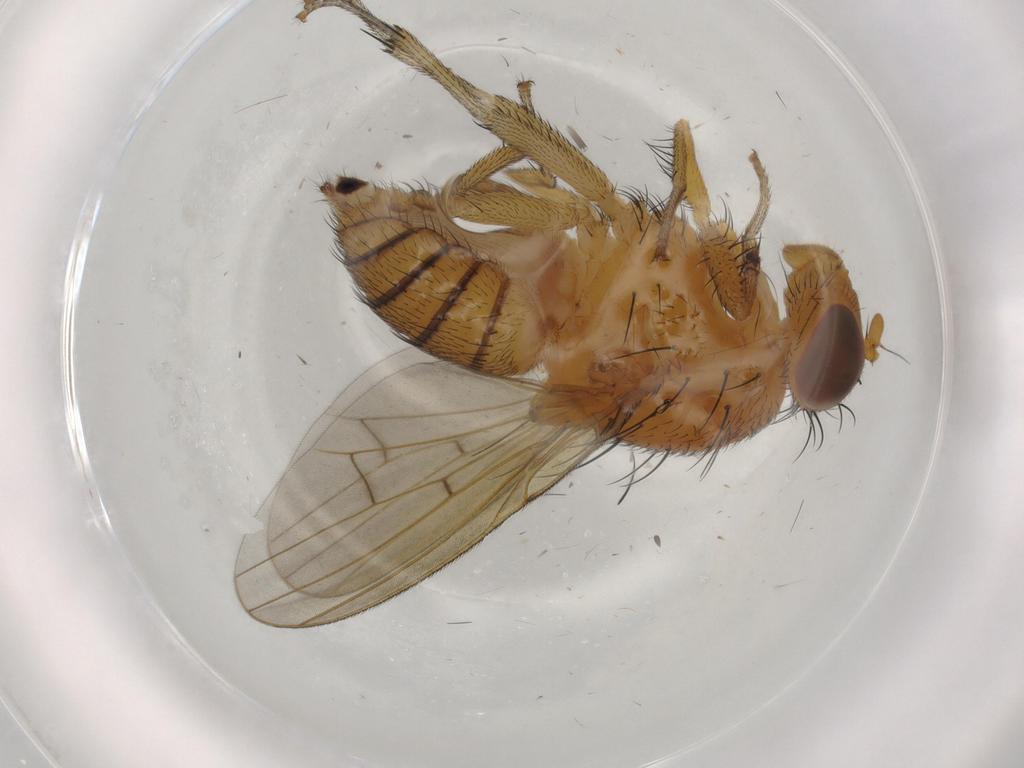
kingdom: Animalia
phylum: Arthropoda
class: Insecta
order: Diptera
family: Lauxaniidae
